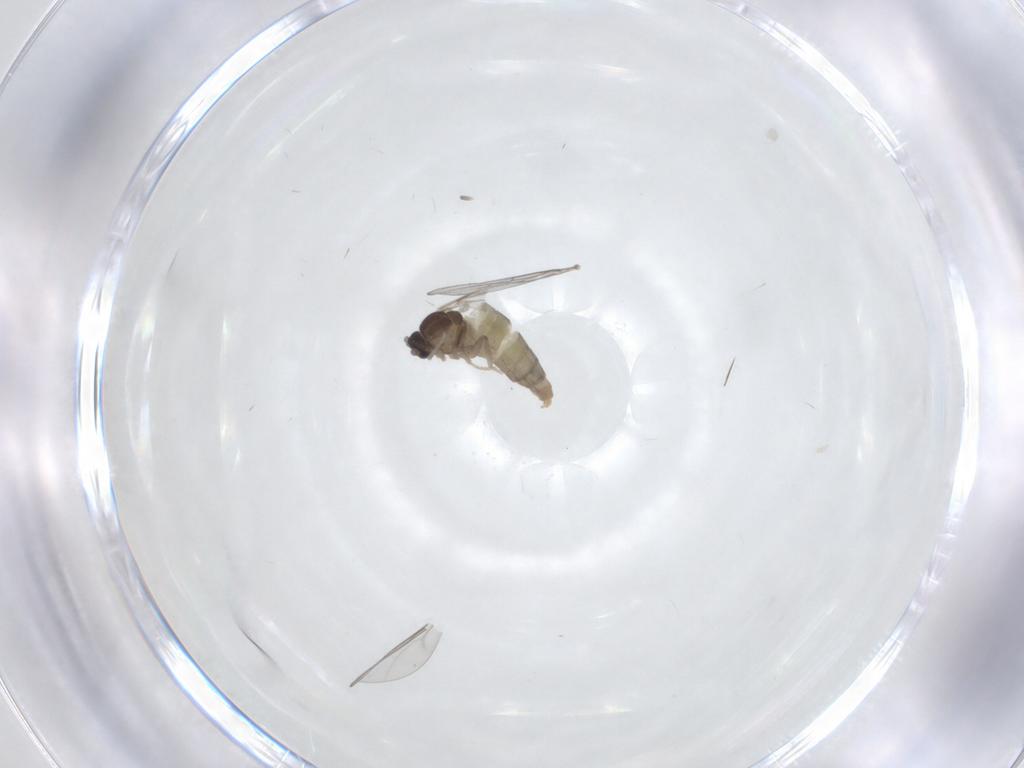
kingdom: Animalia
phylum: Arthropoda
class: Insecta
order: Diptera
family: Cecidomyiidae
